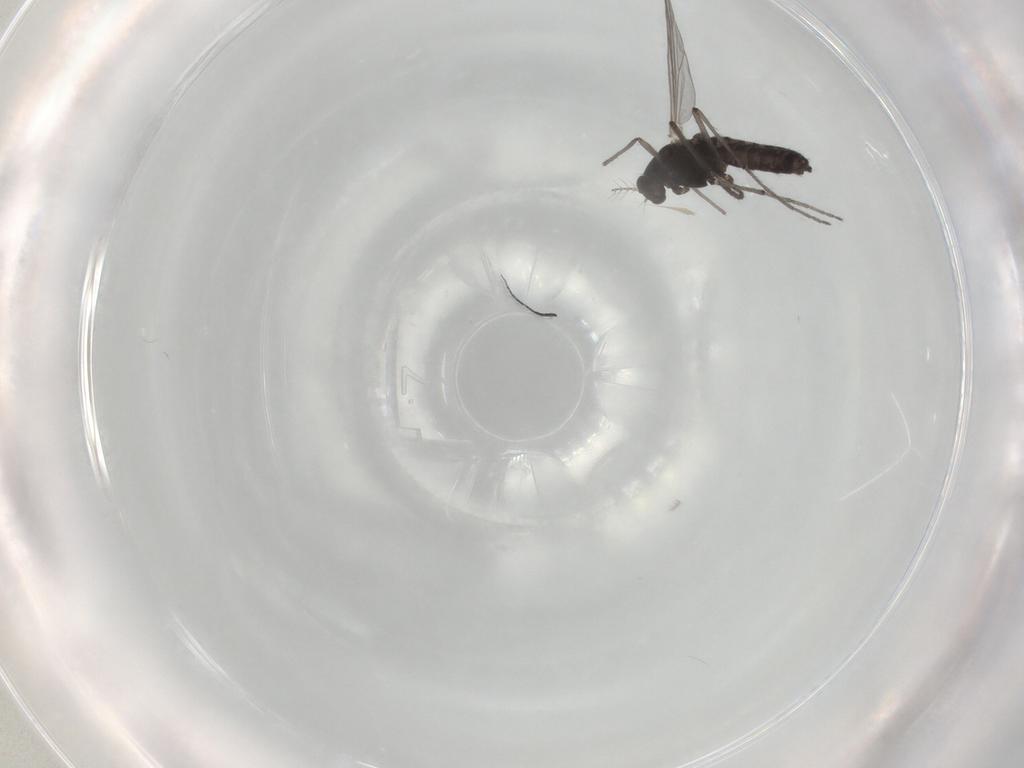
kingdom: Animalia
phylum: Arthropoda
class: Insecta
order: Diptera
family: Chironomidae
